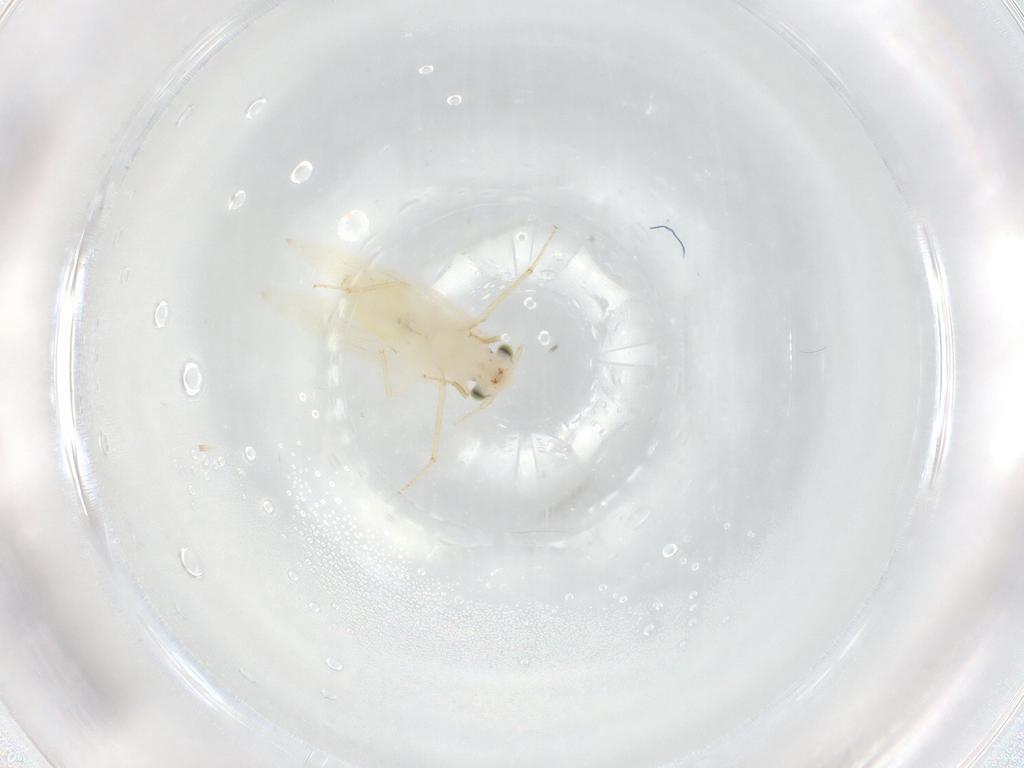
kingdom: Animalia
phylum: Arthropoda
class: Insecta
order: Psocodea
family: Lepidopsocidae
